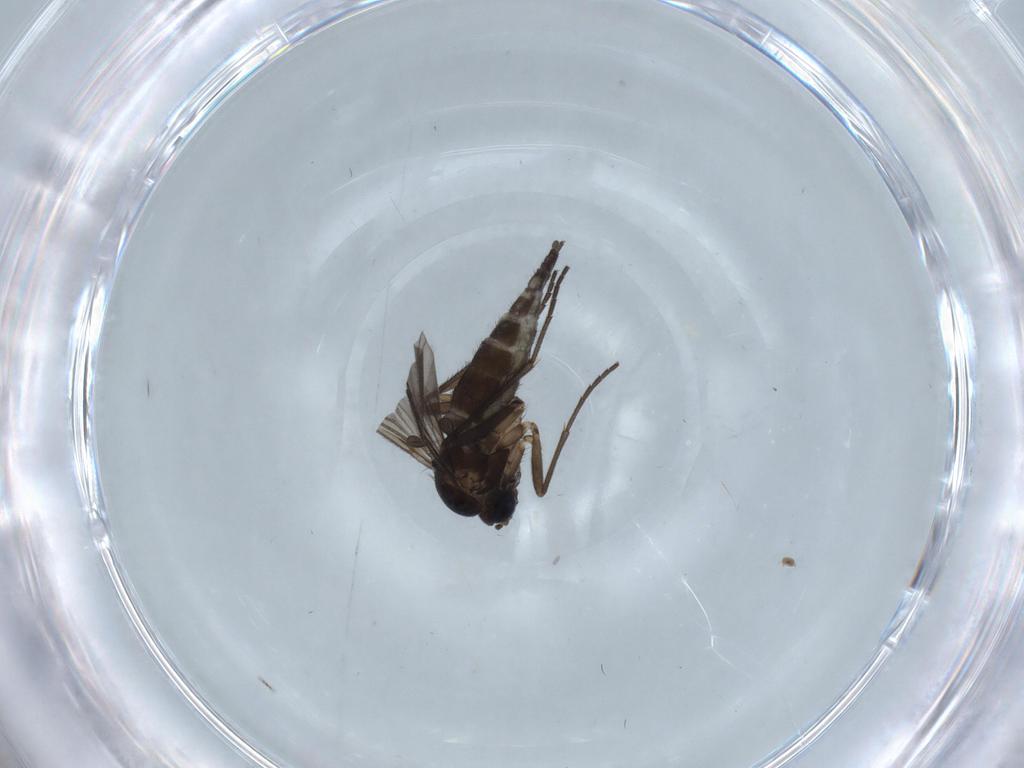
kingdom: Animalia
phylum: Arthropoda
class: Insecta
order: Diptera
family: Sciaridae
